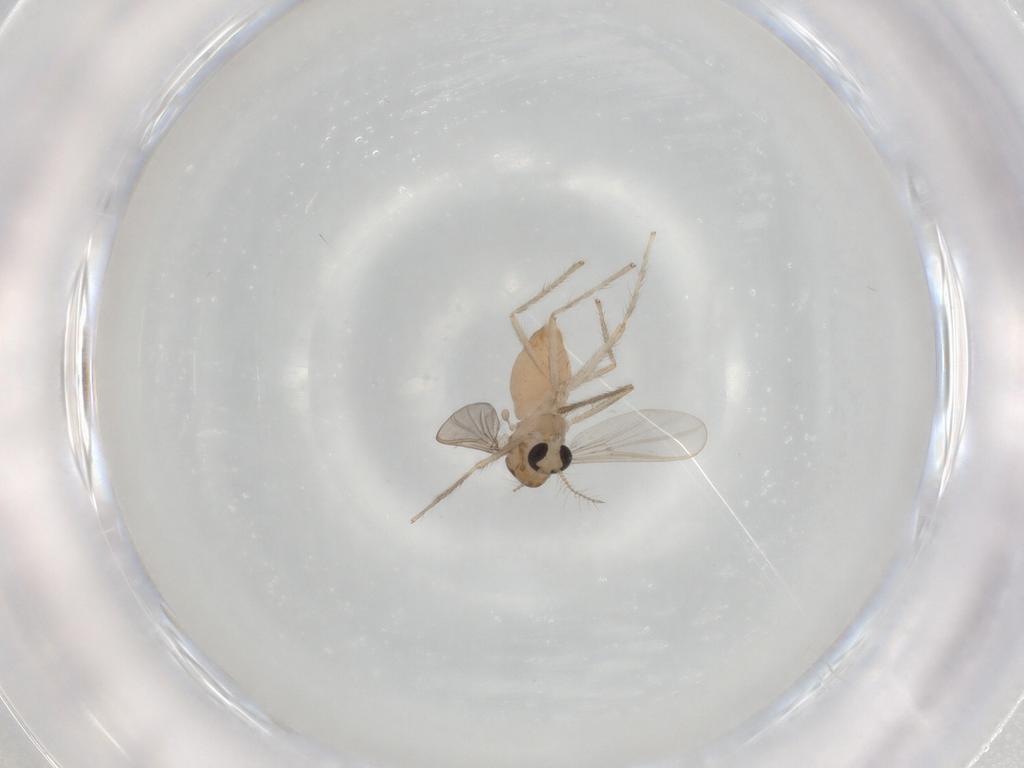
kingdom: Animalia
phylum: Arthropoda
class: Insecta
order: Diptera
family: Chironomidae
